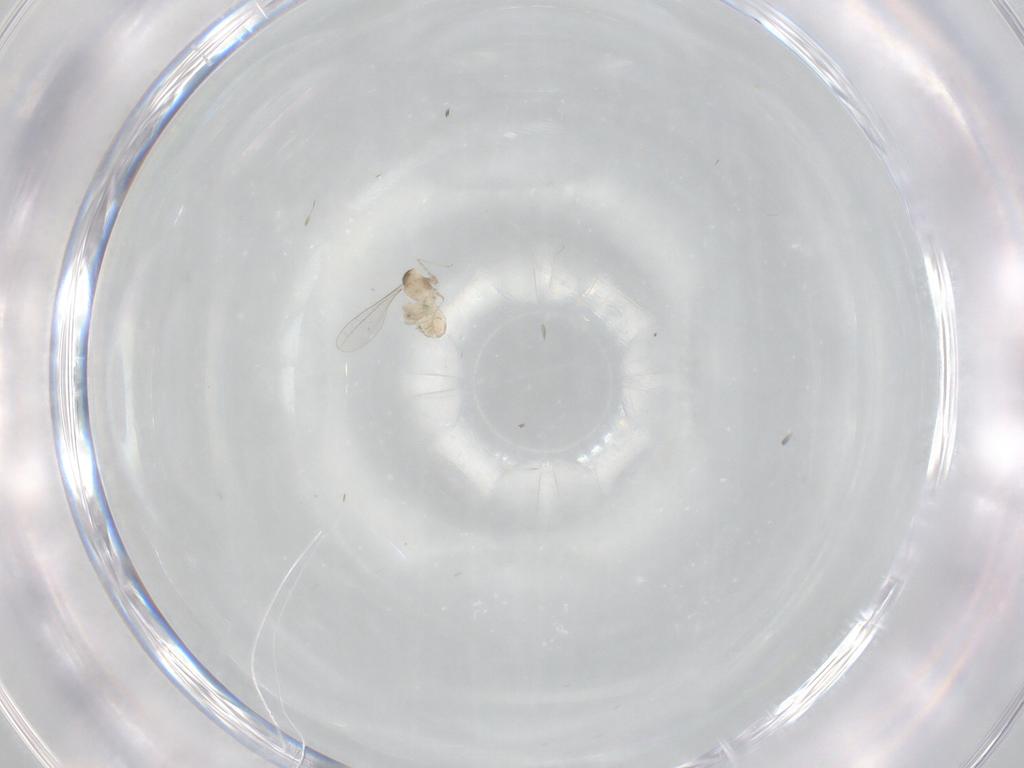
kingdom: Animalia
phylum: Arthropoda
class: Insecta
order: Diptera
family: Cecidomyiidae
